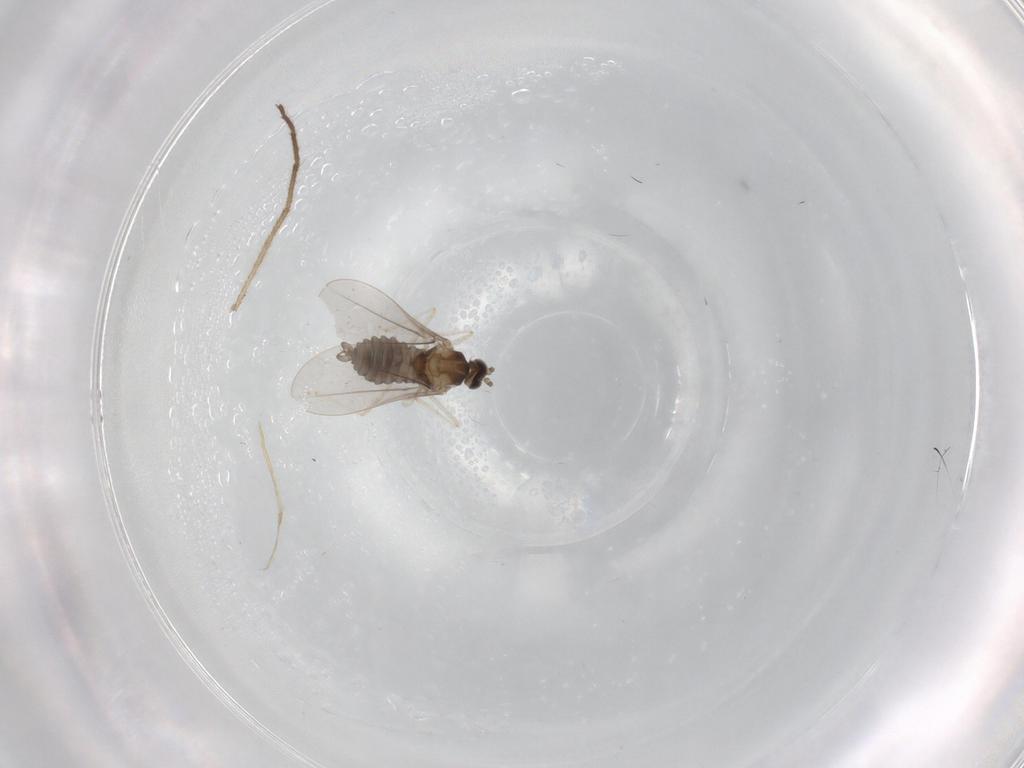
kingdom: Animalia
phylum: Arthropoda
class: Insecta
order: Diptera
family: Chironomidae
